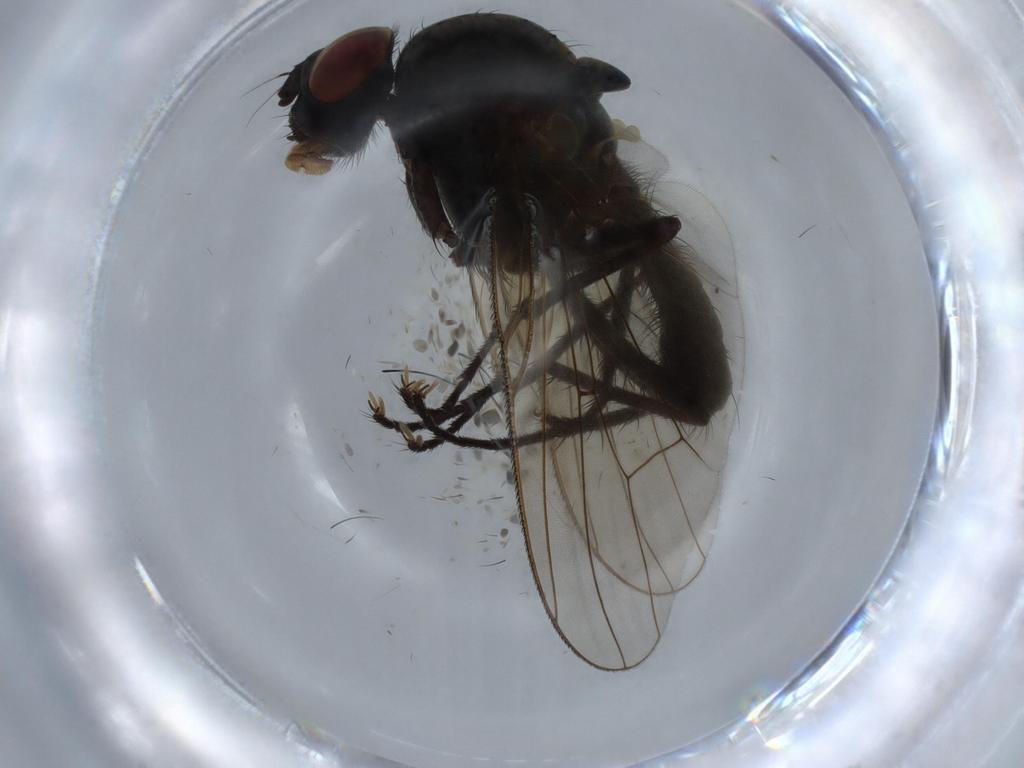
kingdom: Animalia
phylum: Arthropoda
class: Insecta
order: Diptera
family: Anthomyiidae
